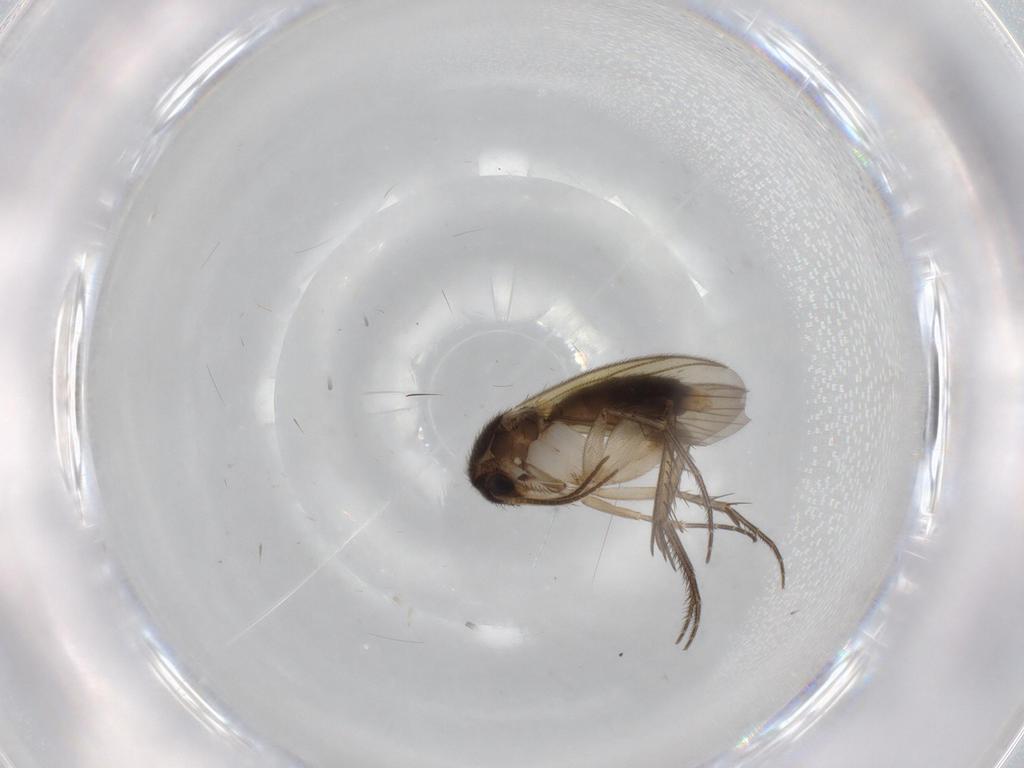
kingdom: Animalia
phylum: Arthropoda
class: Insecta
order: Diptera
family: Mycetophilidae
